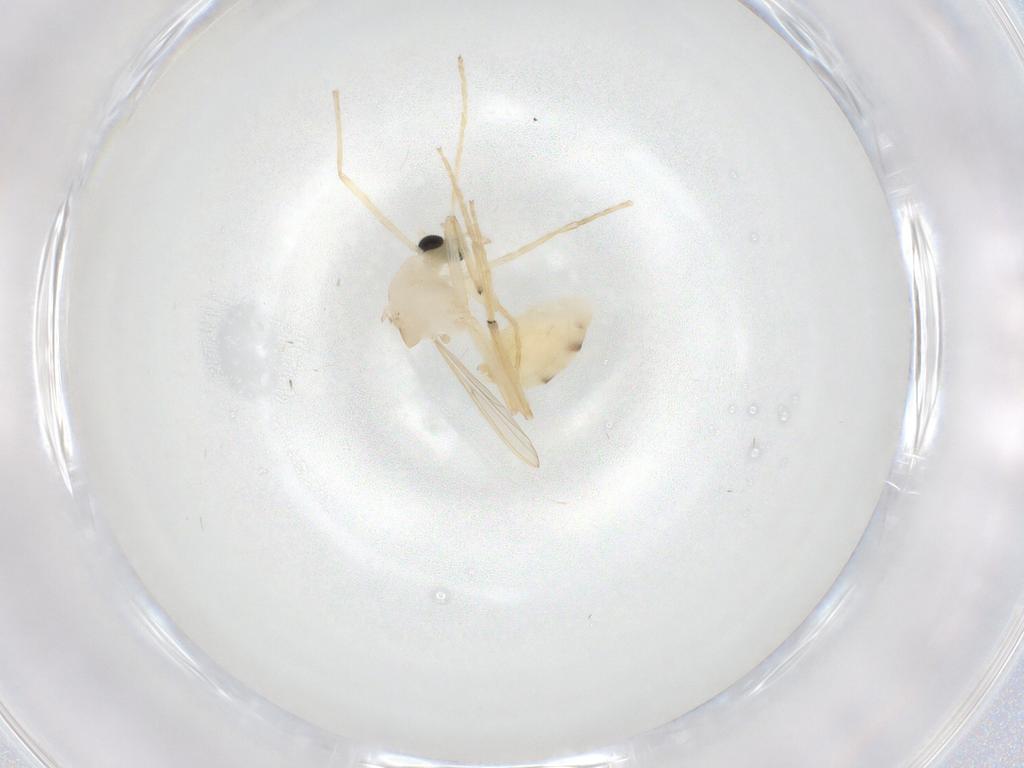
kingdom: Animalia
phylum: Arthropoda
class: Insecta
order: Diptera
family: Chironomidae
